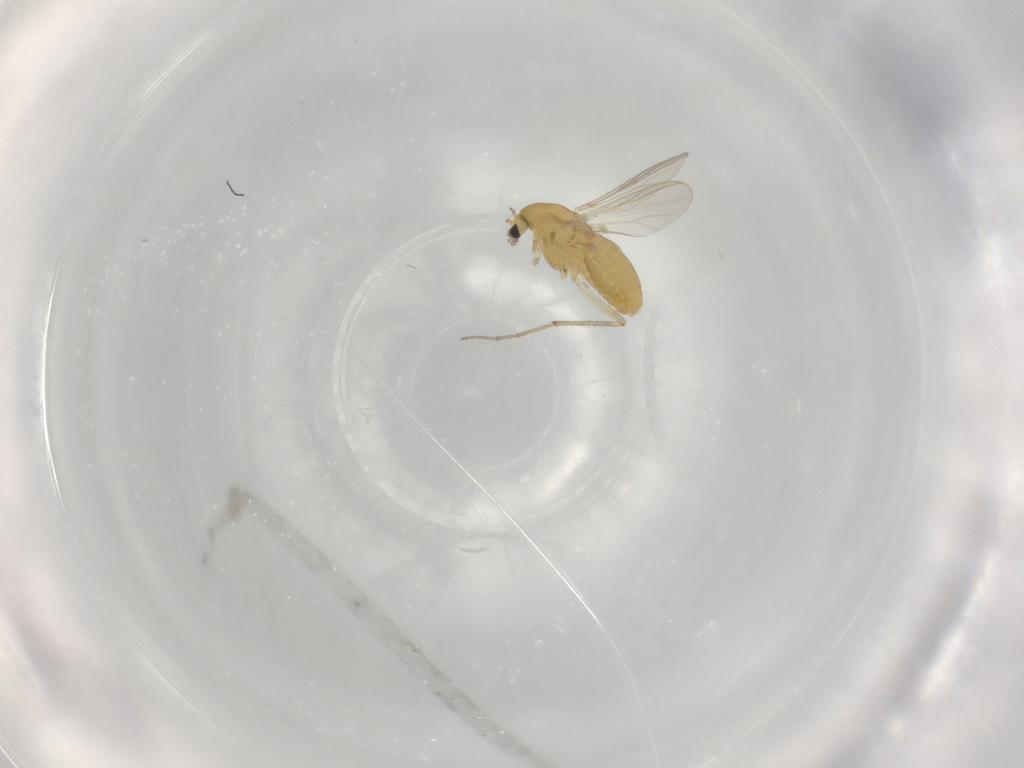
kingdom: Animalia
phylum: Arthropoda
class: Insecta
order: Diptera
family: Chironomidae
